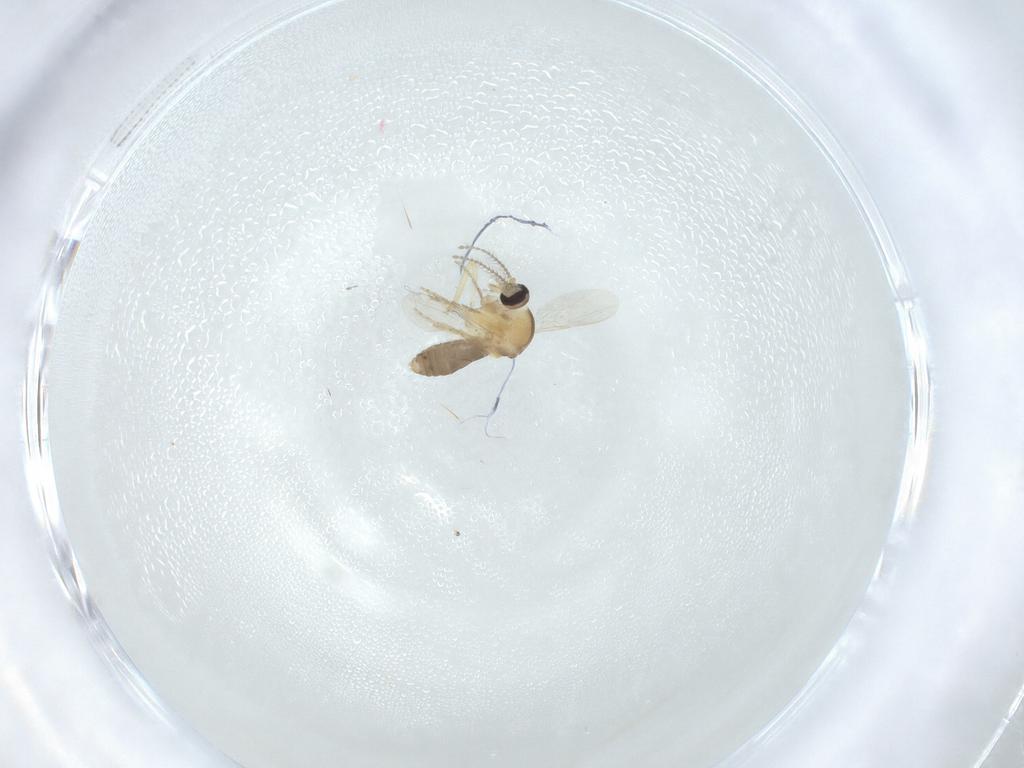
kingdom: Animalia
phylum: Arthropoda
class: Insecta
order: Diptera
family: Ceratopogonidae
